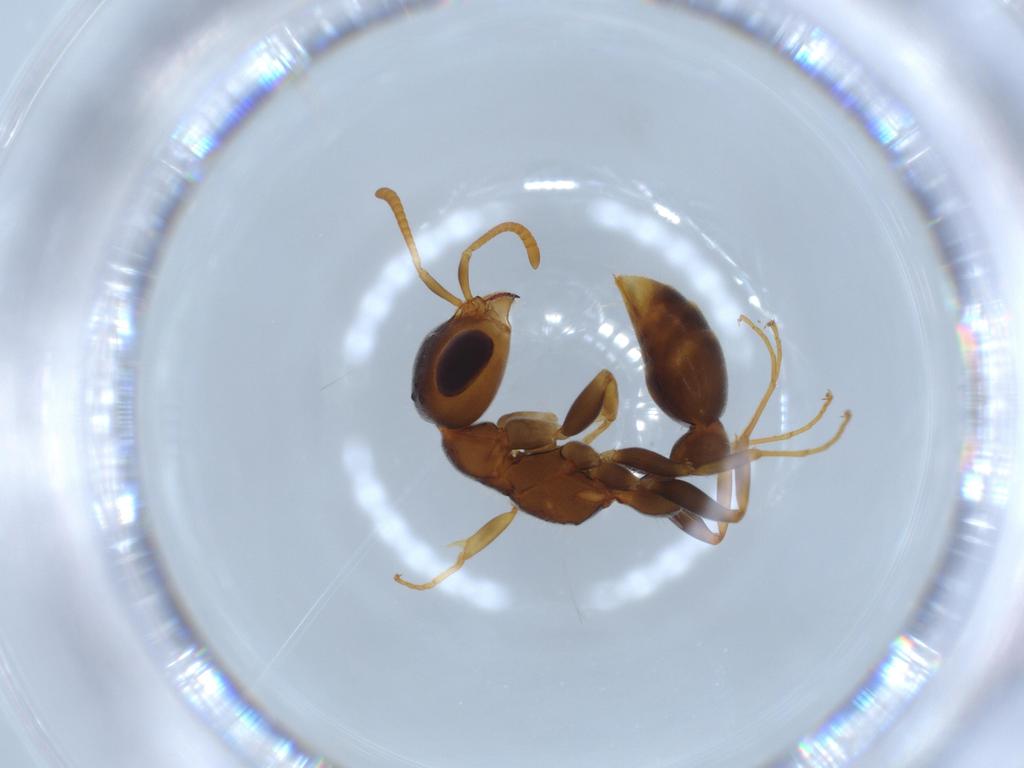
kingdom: Animalia
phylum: Arthropoda
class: Insecta
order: Hymenoptera
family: Formicidae
